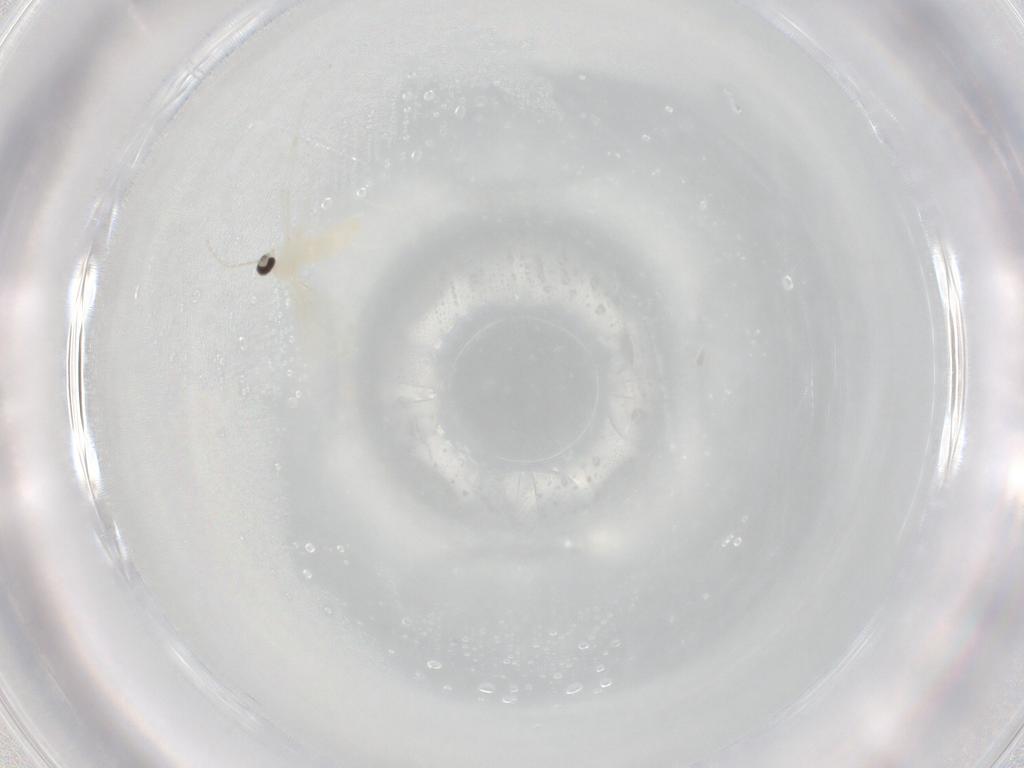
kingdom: Animalia
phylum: Arthropoda
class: Insecta
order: Diptera
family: Cecidomyiidae
